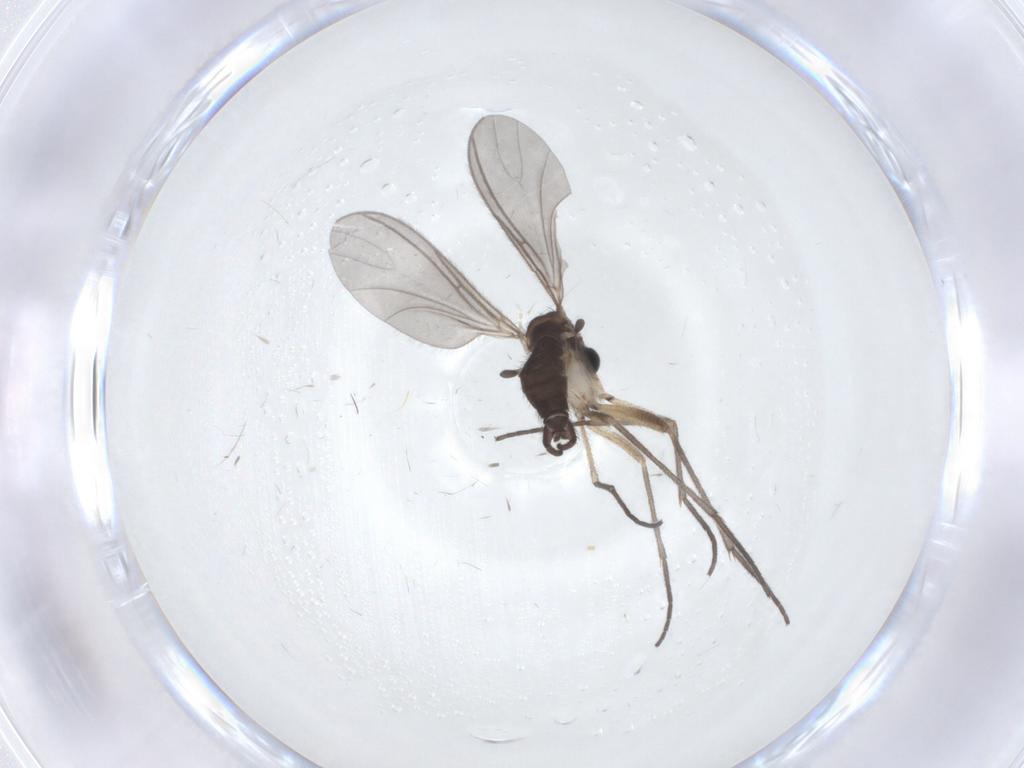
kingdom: Animalia
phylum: Arthropoda
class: Insecta
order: Diptera
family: Sciaridae
